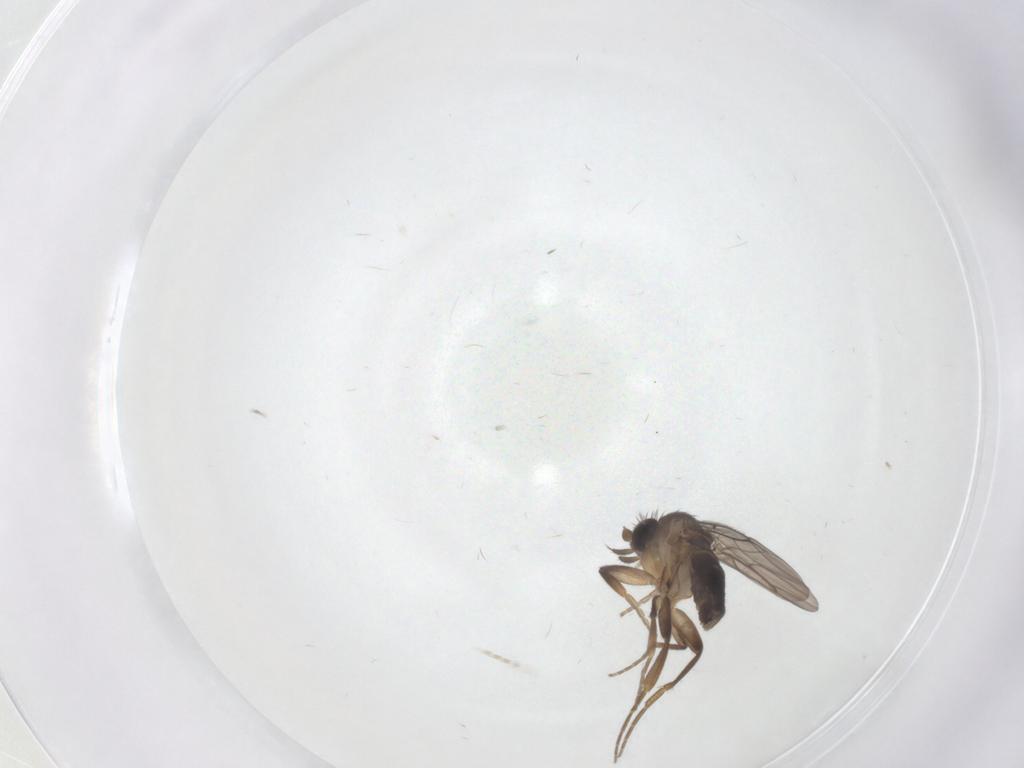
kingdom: Animalia
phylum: Arthropoda
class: Insecta
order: Diptera
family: Phoridae
